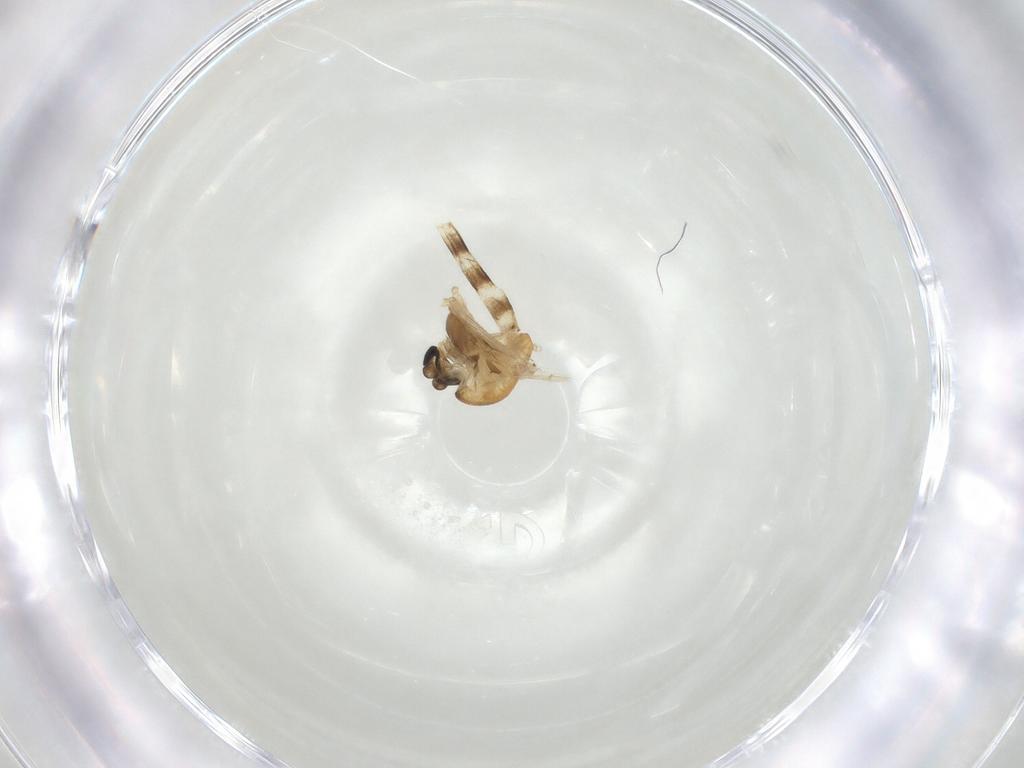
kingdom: Animalia
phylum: Arthropoda
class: Insecta
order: Diptera
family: Chironomidae
